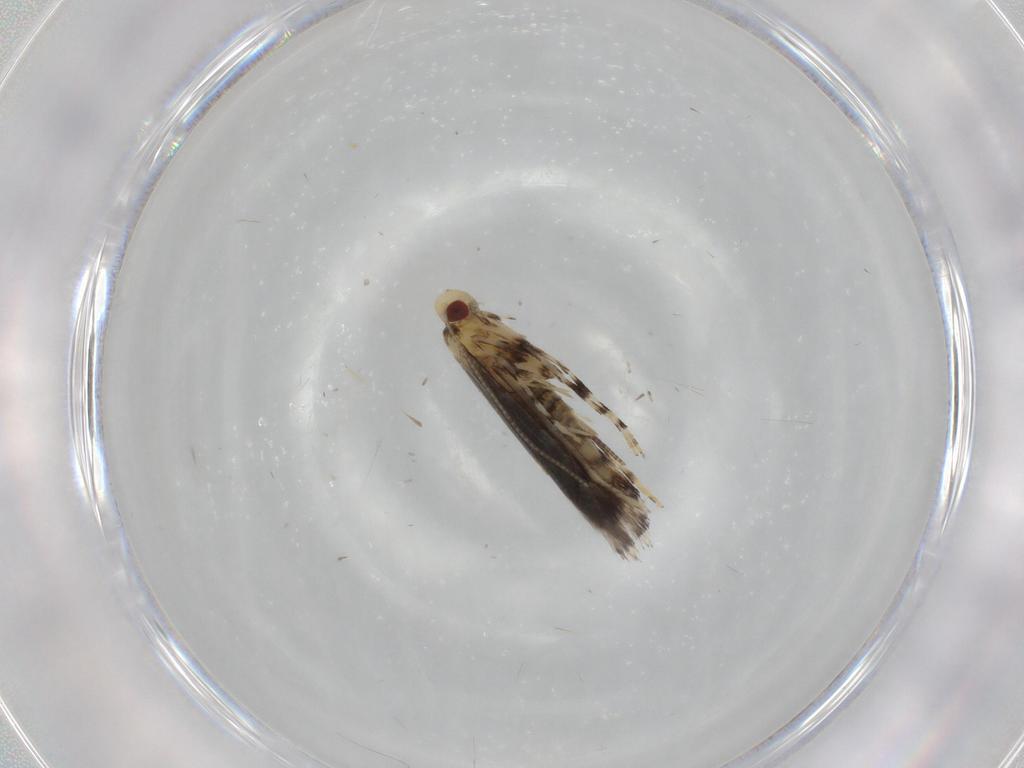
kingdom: Animalia
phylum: Arthropoda
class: Insecta
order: Lepidoptera
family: Gracillariidae
